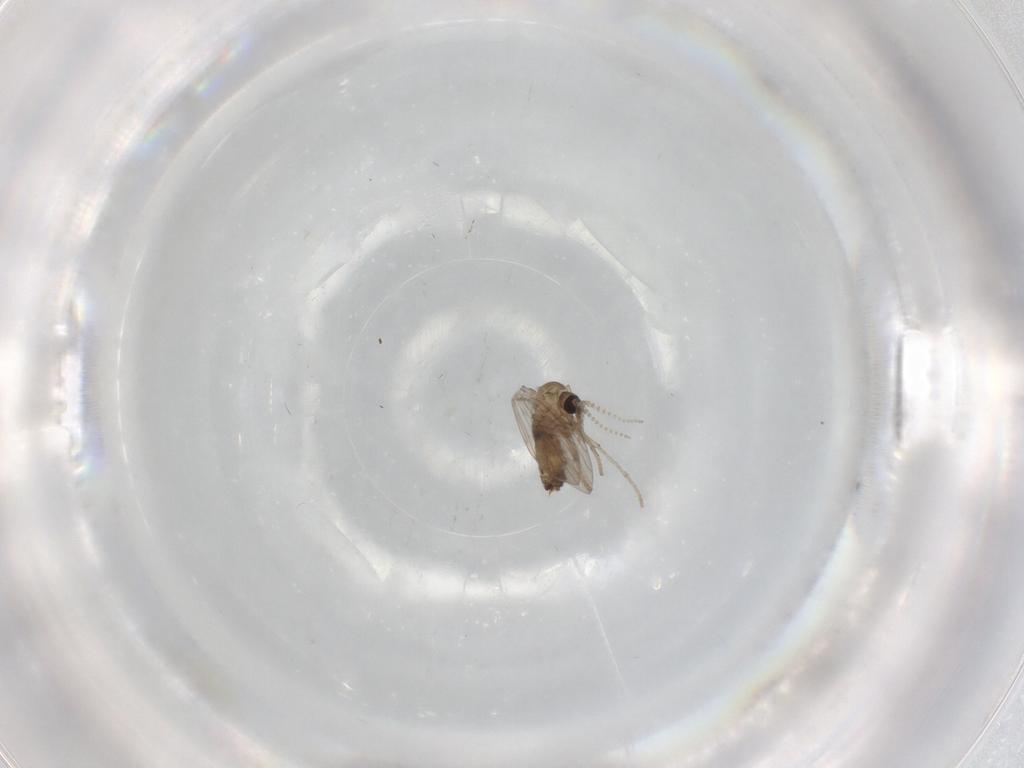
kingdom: Animalia
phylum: Arthropoda
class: Insecta
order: Diptera
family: Psychodidae
